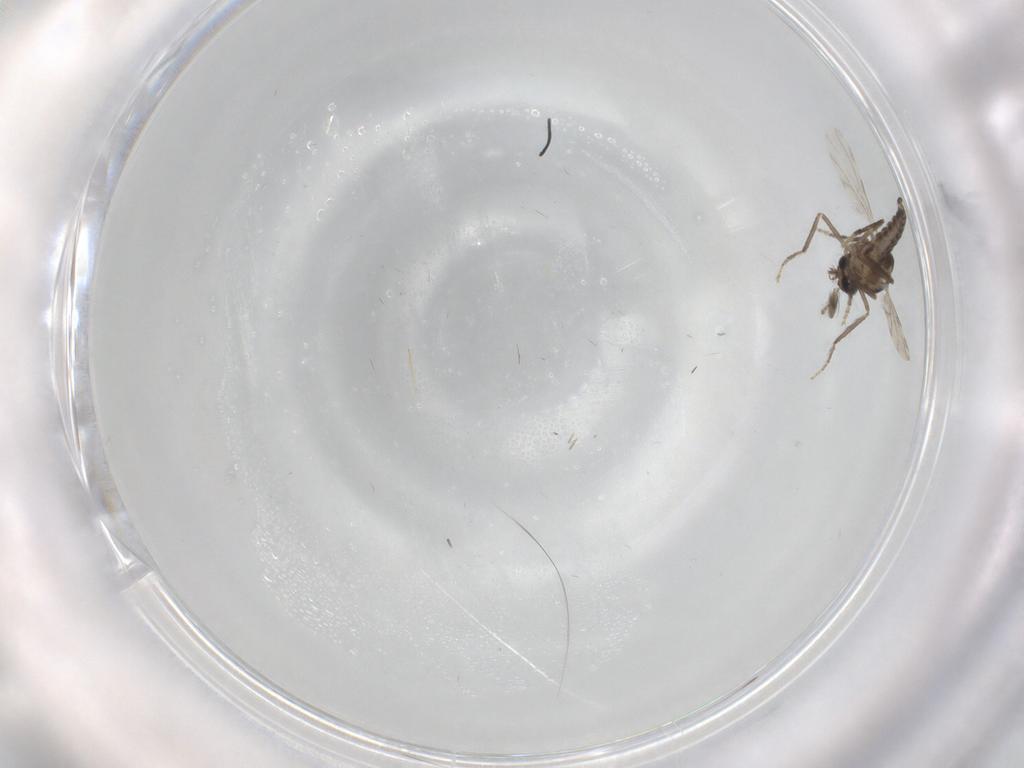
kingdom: Animalia
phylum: Arthropoda
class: Insecta
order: Diptera
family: Ceratopogonidae
